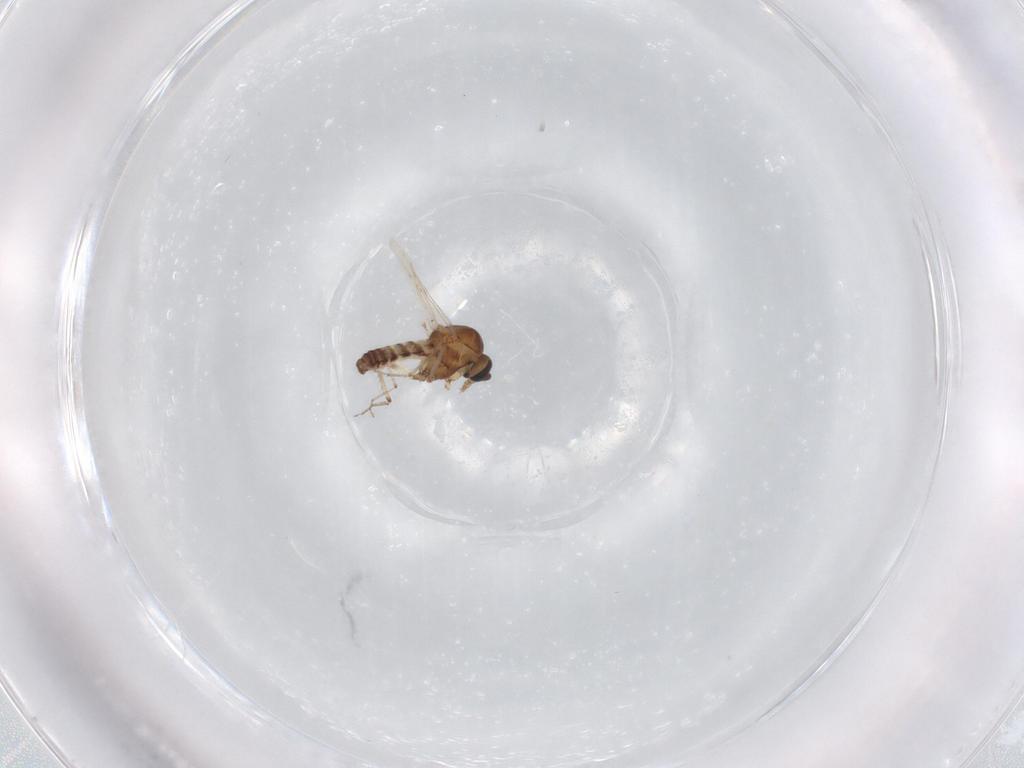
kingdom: Animalia
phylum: Arthropoda
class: Insecta
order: Diptera
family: Ceratopogonidae
